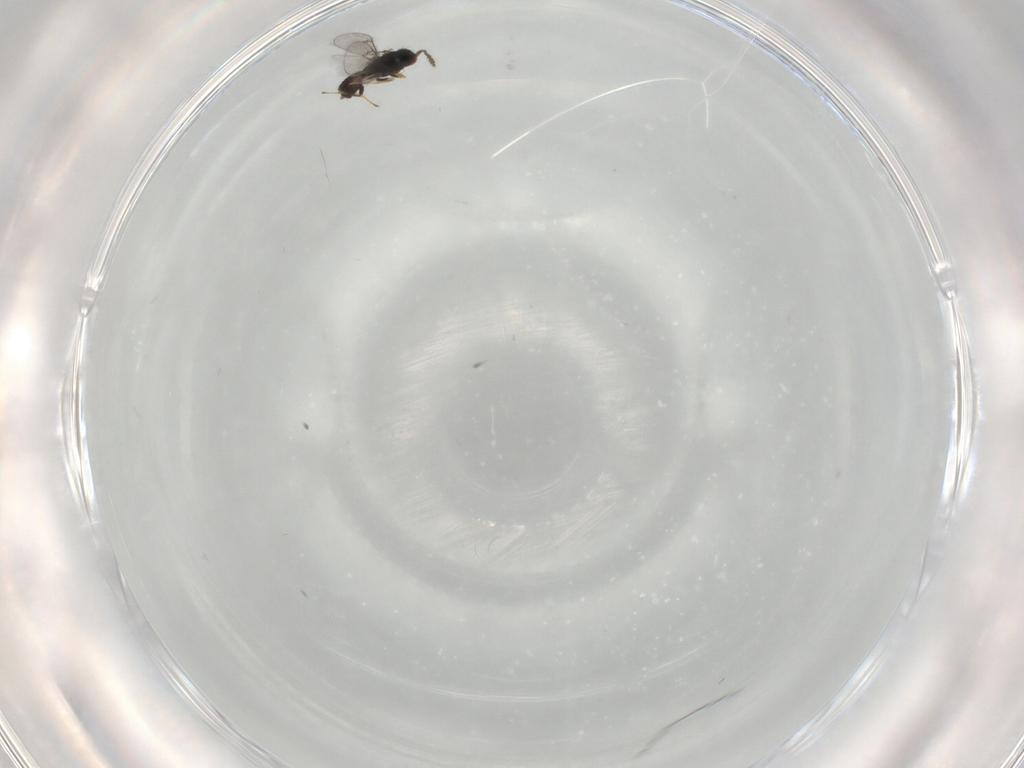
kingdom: Animalia
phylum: Arthropoda
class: Insecta
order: Hymenoptera
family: Eulophidae
